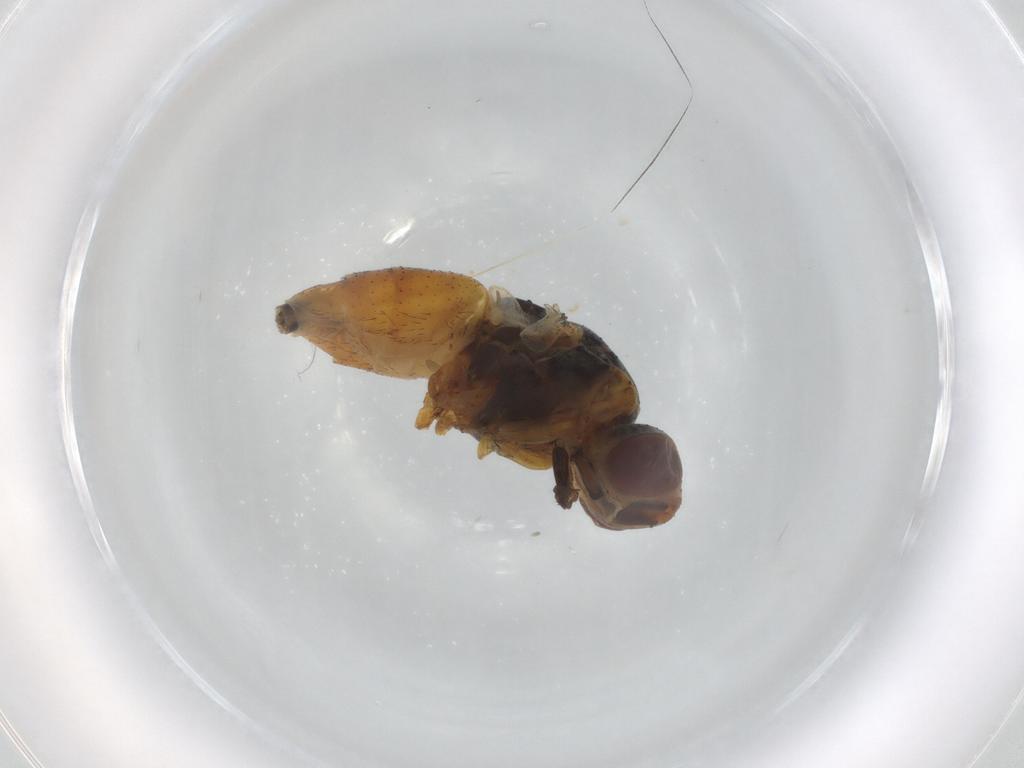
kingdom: Animalia
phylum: Arthropoda
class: Insecta
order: Diptera
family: Muscidae
